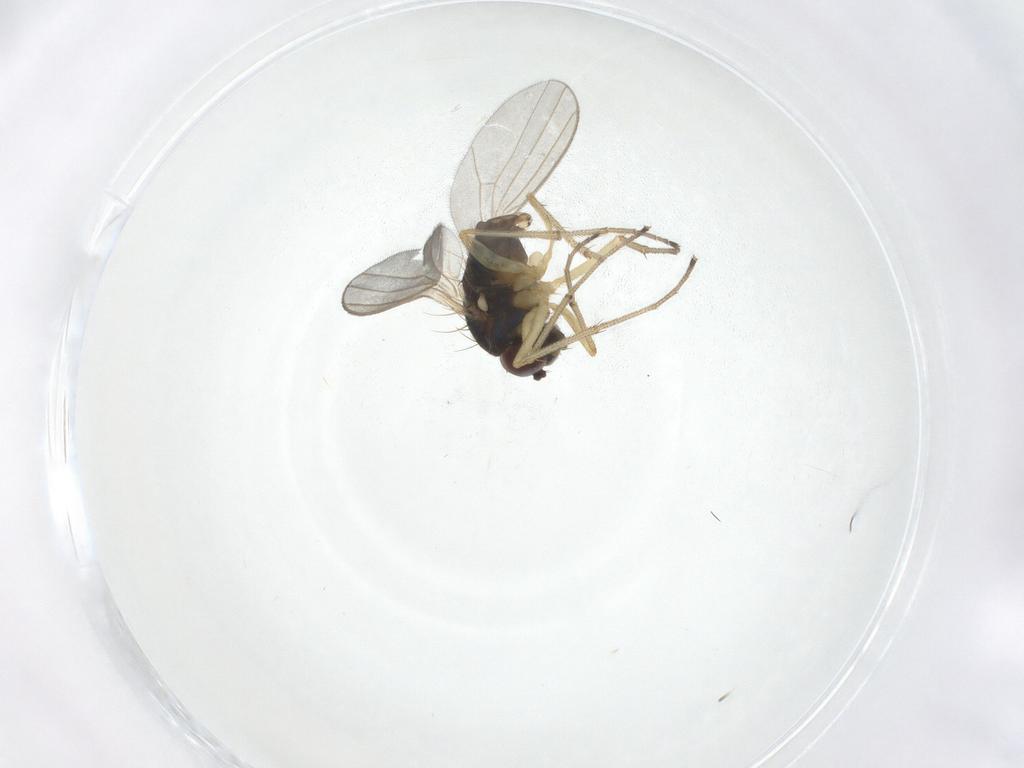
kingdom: Animalia
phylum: Arthropoda
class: Insecta
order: Diptera
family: Dolichopodidae
